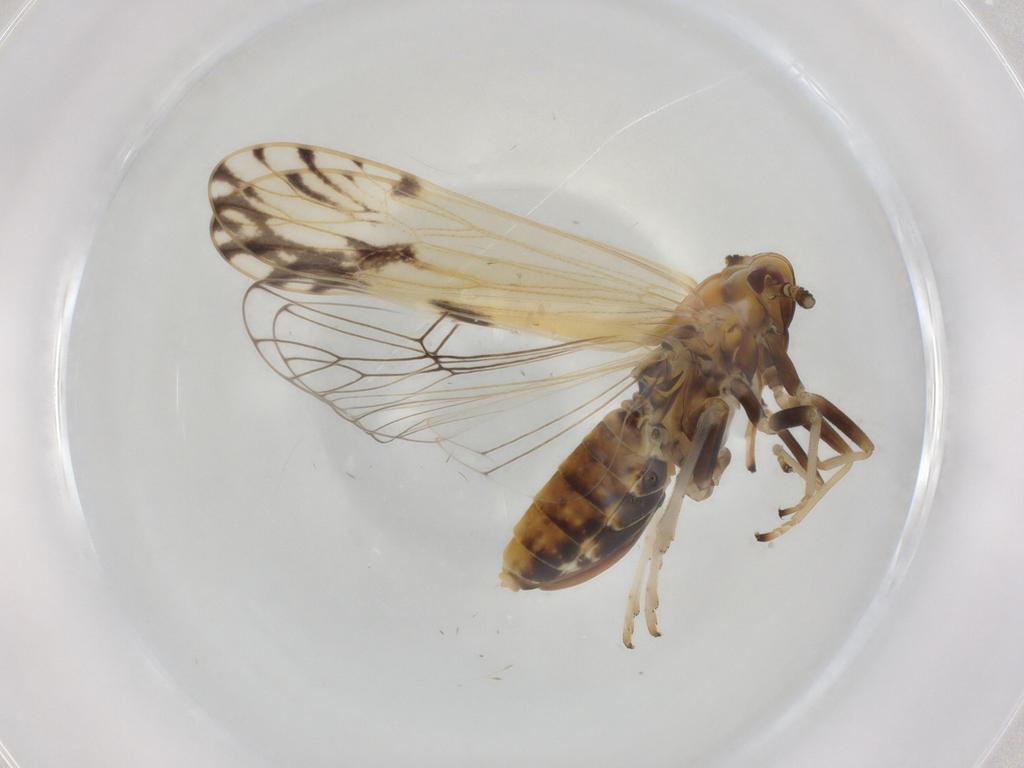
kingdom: Animalia
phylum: Arthropoda
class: Insecta
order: Hemiptera
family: Delphacidae
